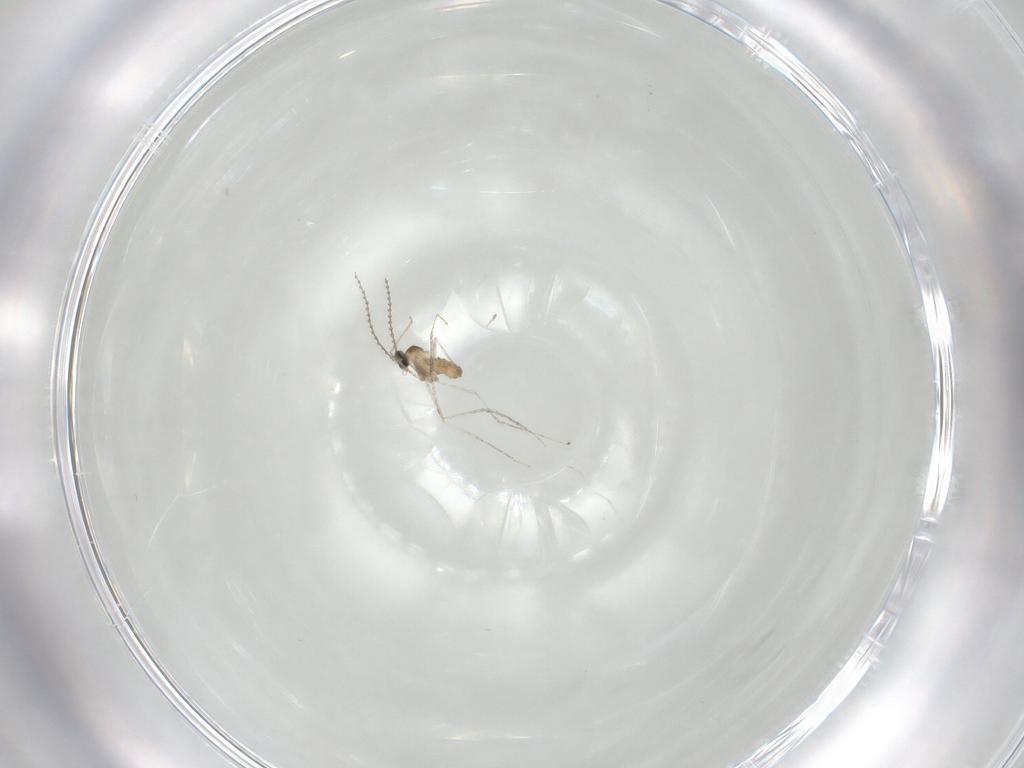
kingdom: Animalia
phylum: Arthropoda
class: Insecta
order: Diptera
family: Cecidomyiidae
